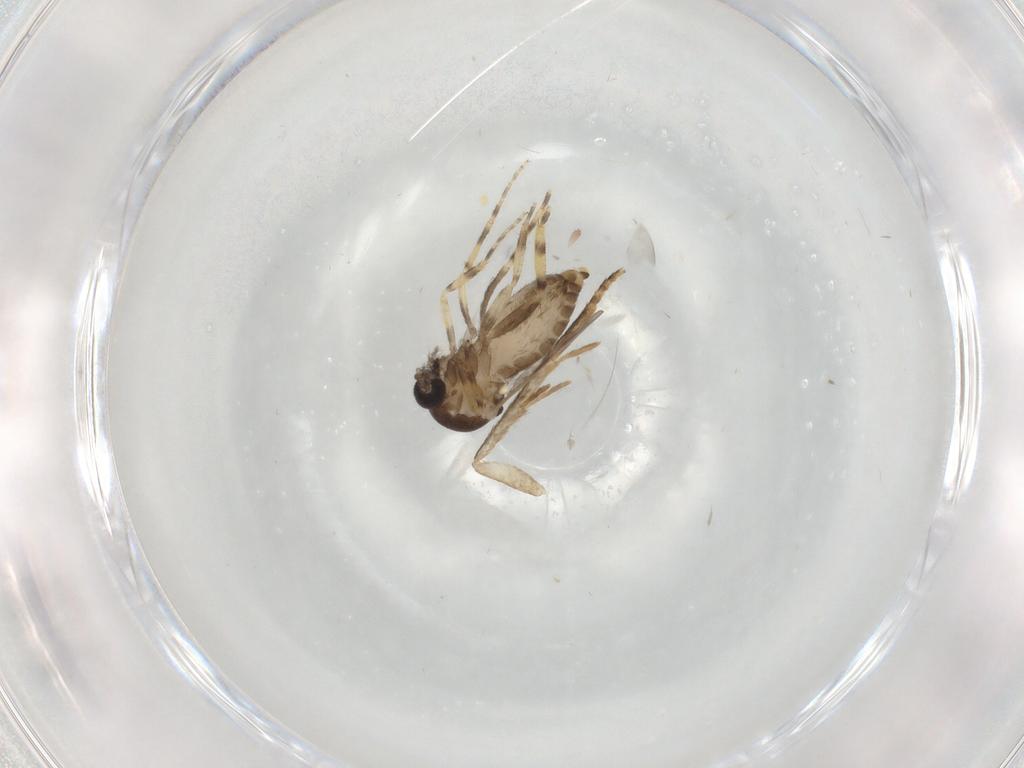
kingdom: Animalia
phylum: Arthropoda
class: Insecta
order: Diptera
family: Ceratopogonidae
